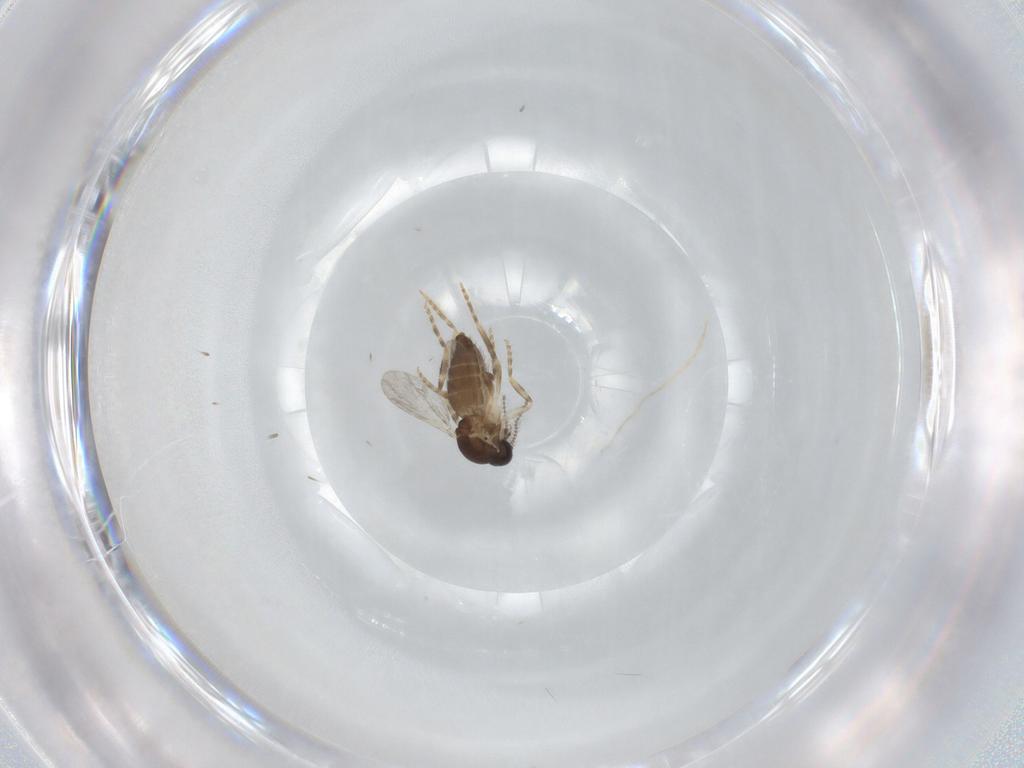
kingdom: Animalia
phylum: Arthropoda
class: Insecta
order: Diptera
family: Ceratopogonidae
